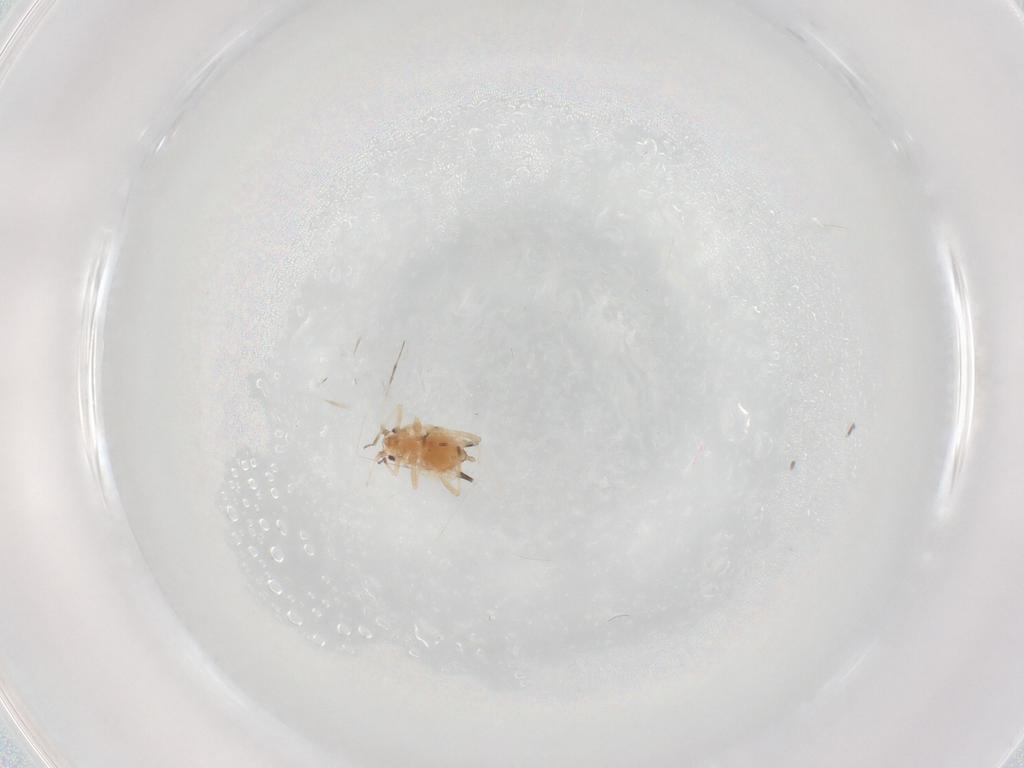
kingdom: Animalia
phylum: Arthropoda
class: Insecta
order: Hemiptera
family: Aphididae
